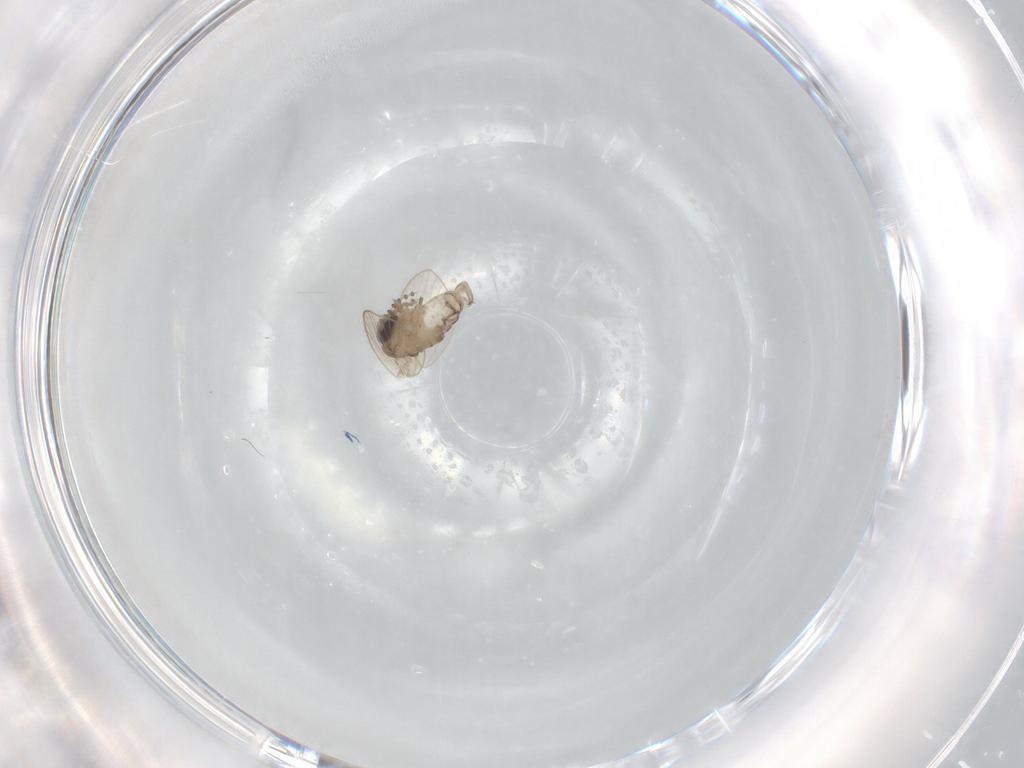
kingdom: Animalia
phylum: Arthropoda
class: Insecta
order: Diptera
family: Psychodidae
